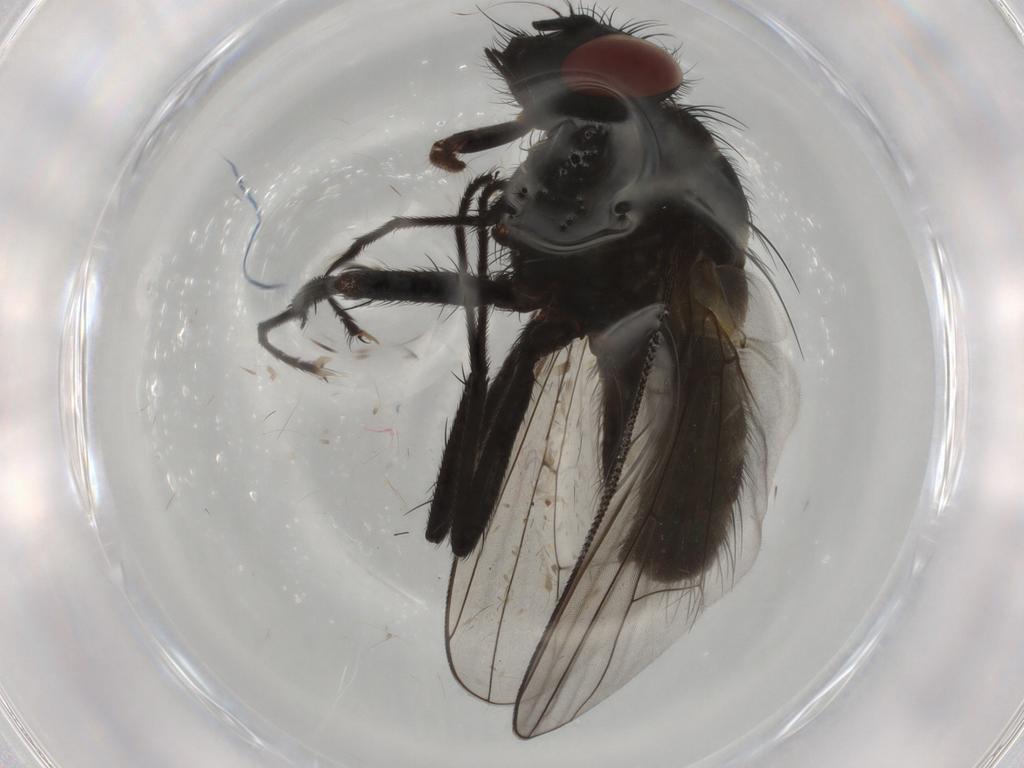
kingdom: Animalia
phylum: Arthropoda
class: Insecta
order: Diptera
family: Muscidae
